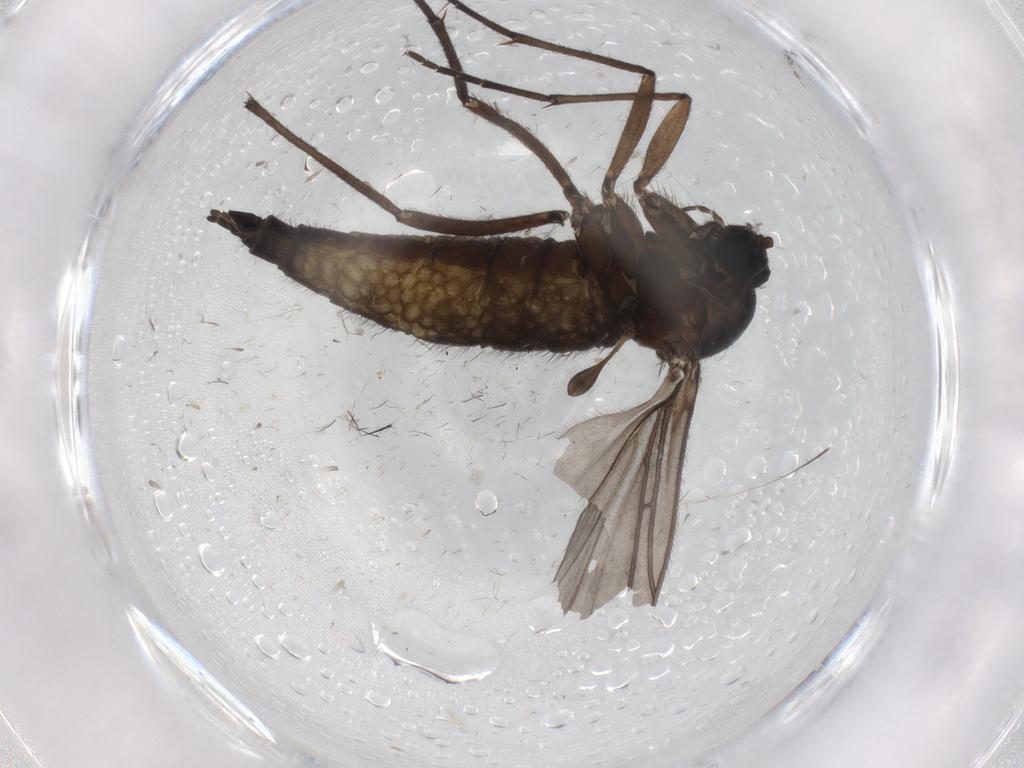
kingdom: Animalia
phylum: Arthropoda
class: Insecta
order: Diptera
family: Sciaridae
